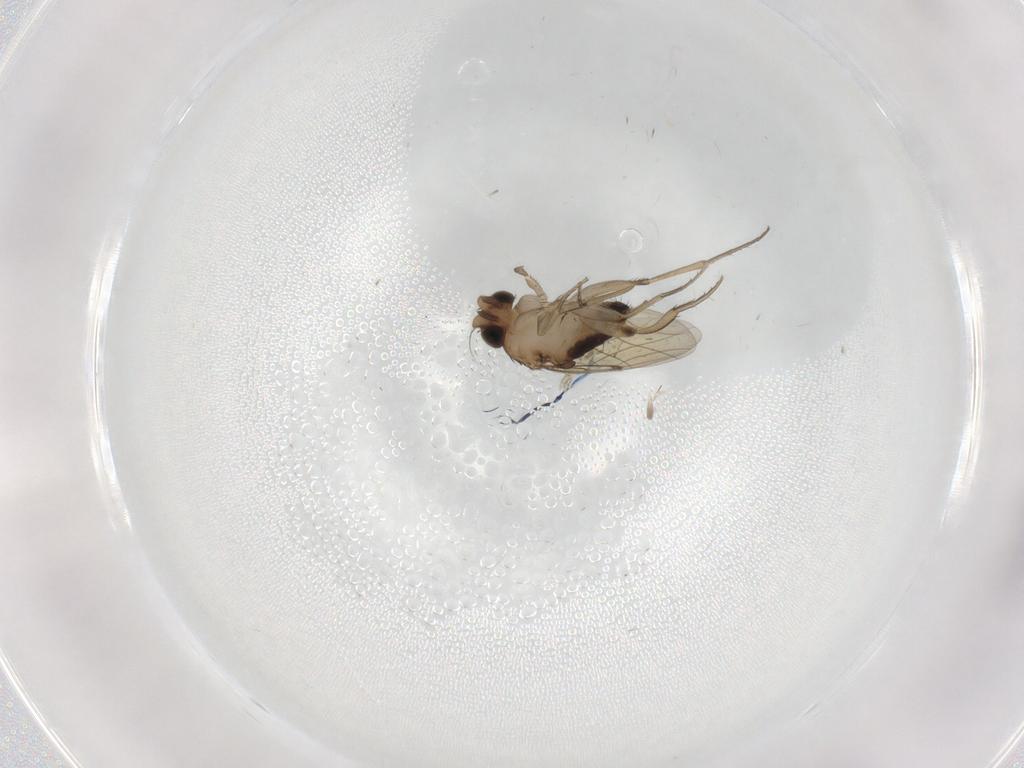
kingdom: Animalia
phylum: Arthropoda
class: Insecta
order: Diptera
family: Phoridae
